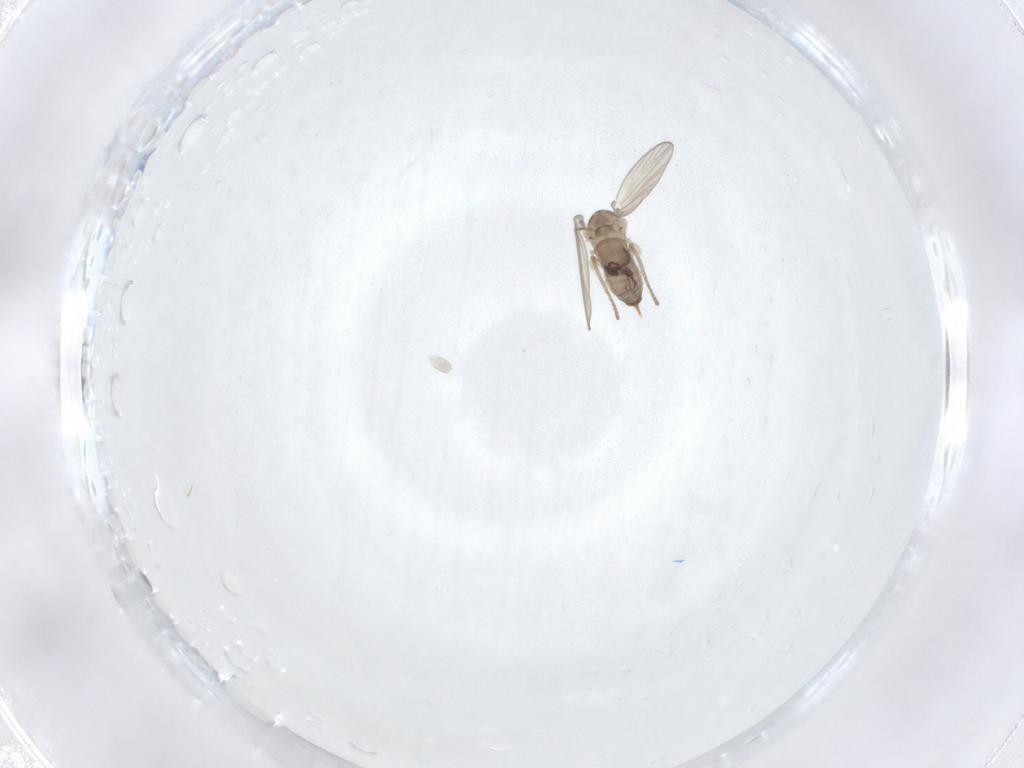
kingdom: Animalia
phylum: Arthropoda
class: Insecta
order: Diptera
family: Psychodidae
